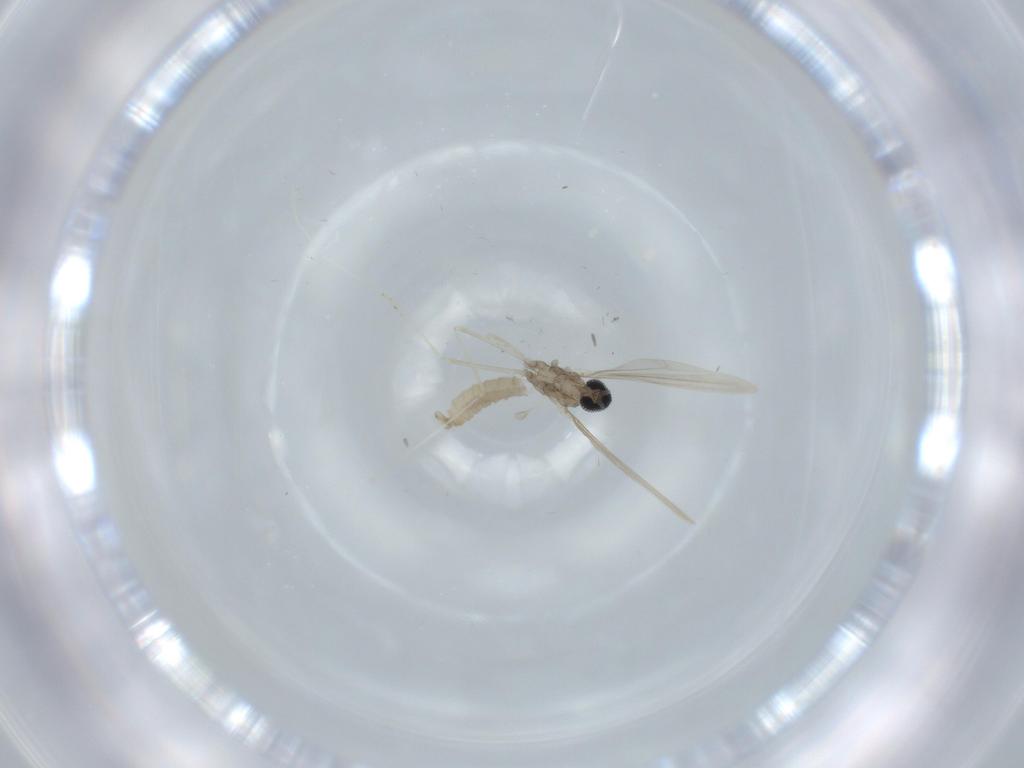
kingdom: Animalia
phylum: Arthropoda
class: Insecta
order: Diptera
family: Cecidomyiidae
